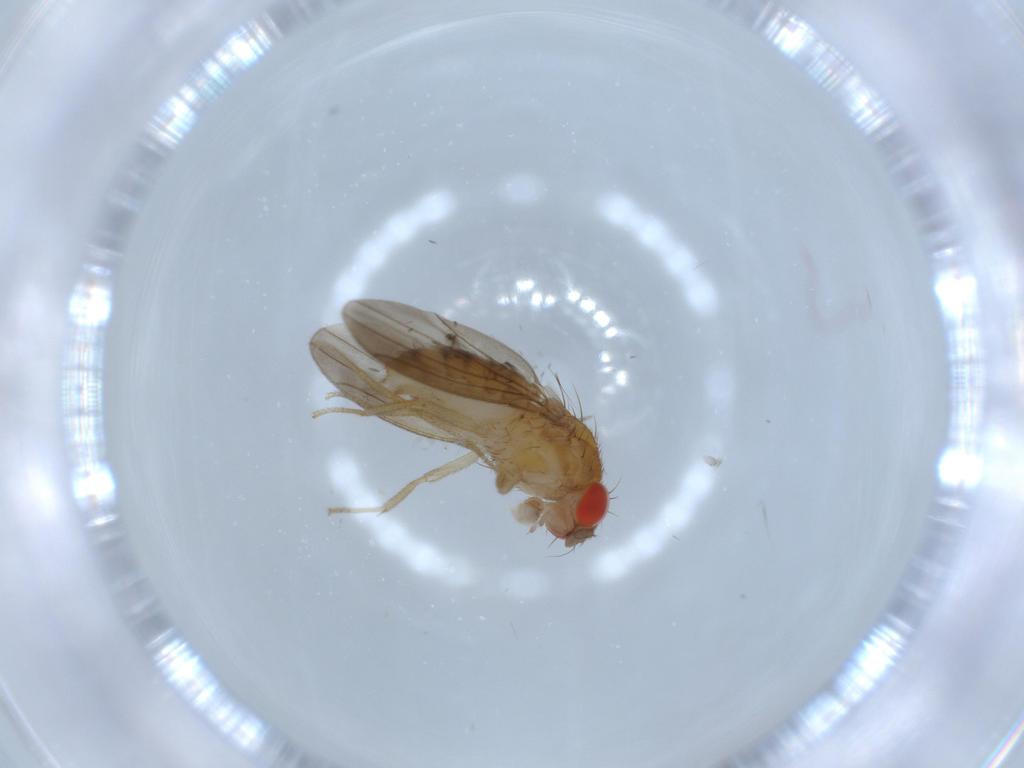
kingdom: Animalia
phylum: Arthropoda
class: Insecta
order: Diptera
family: Drosophilidae
